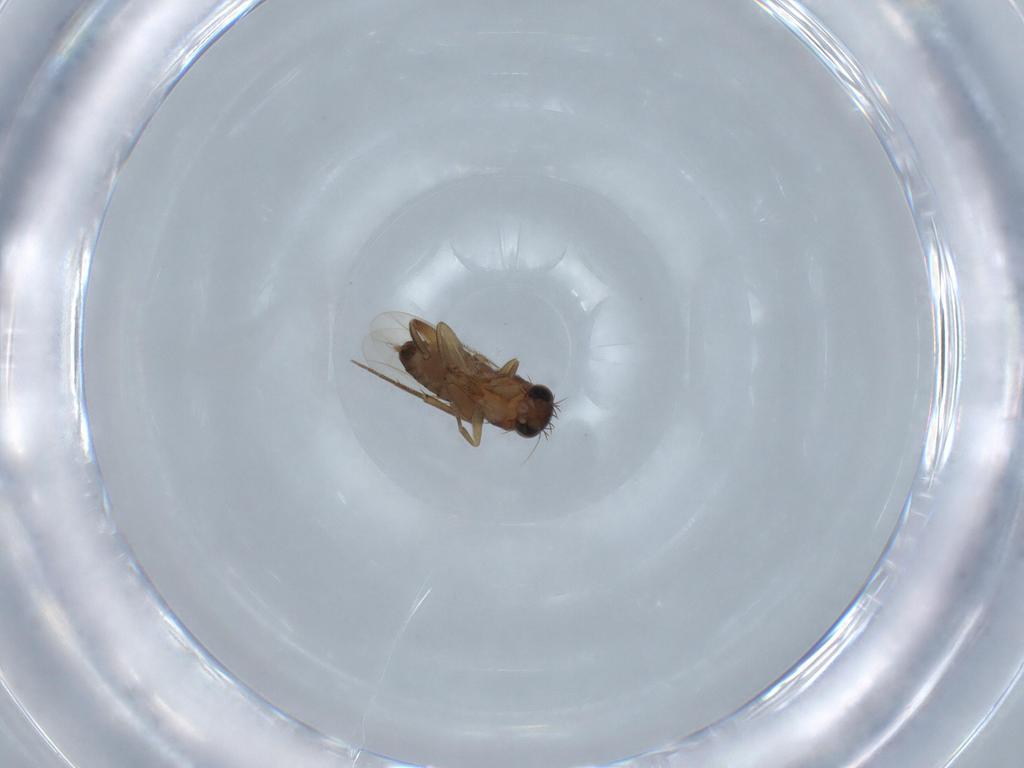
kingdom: Animalia
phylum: Arthropoda
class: Insecta
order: Diptera
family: Phoridae
